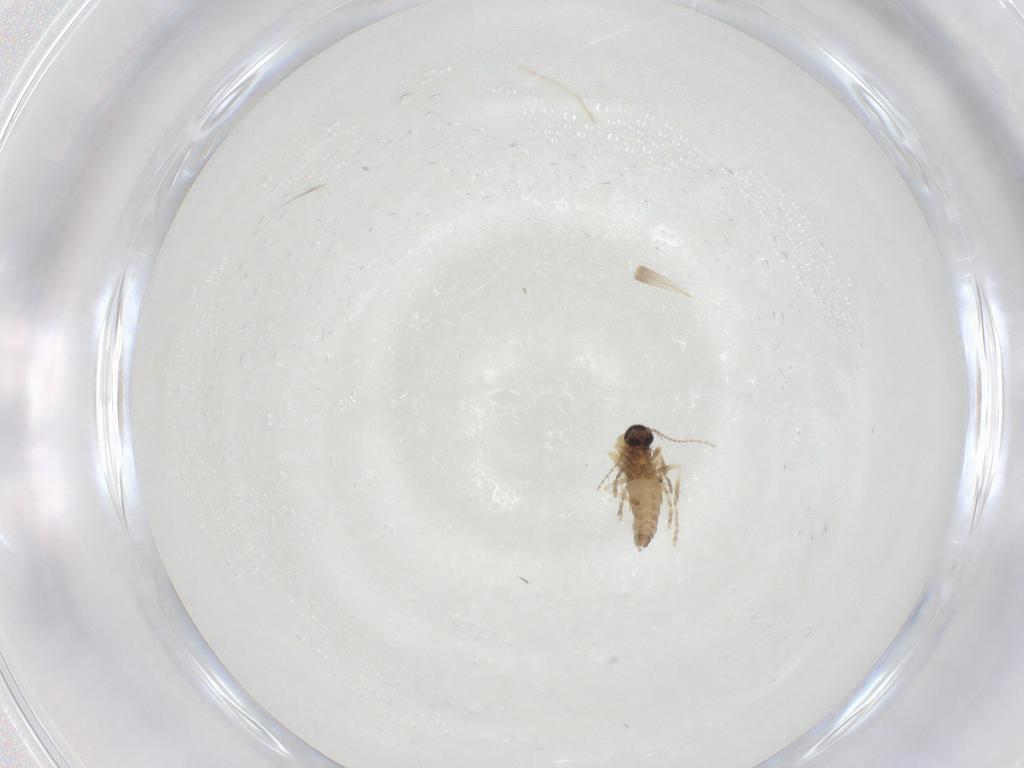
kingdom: Animalia
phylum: Arthropoda
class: Insecta
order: Diptera
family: Ceratopogonidae
